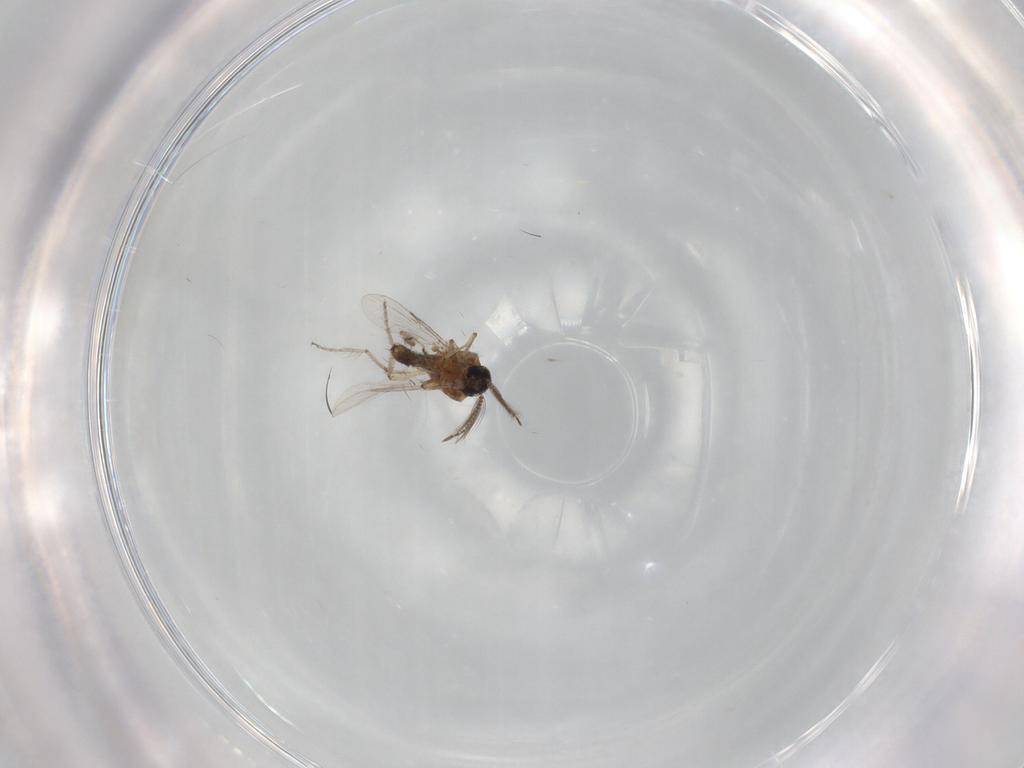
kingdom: Animalia
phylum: Arthropoda
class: Insecta
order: Diptera
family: Ceratopogonidae
